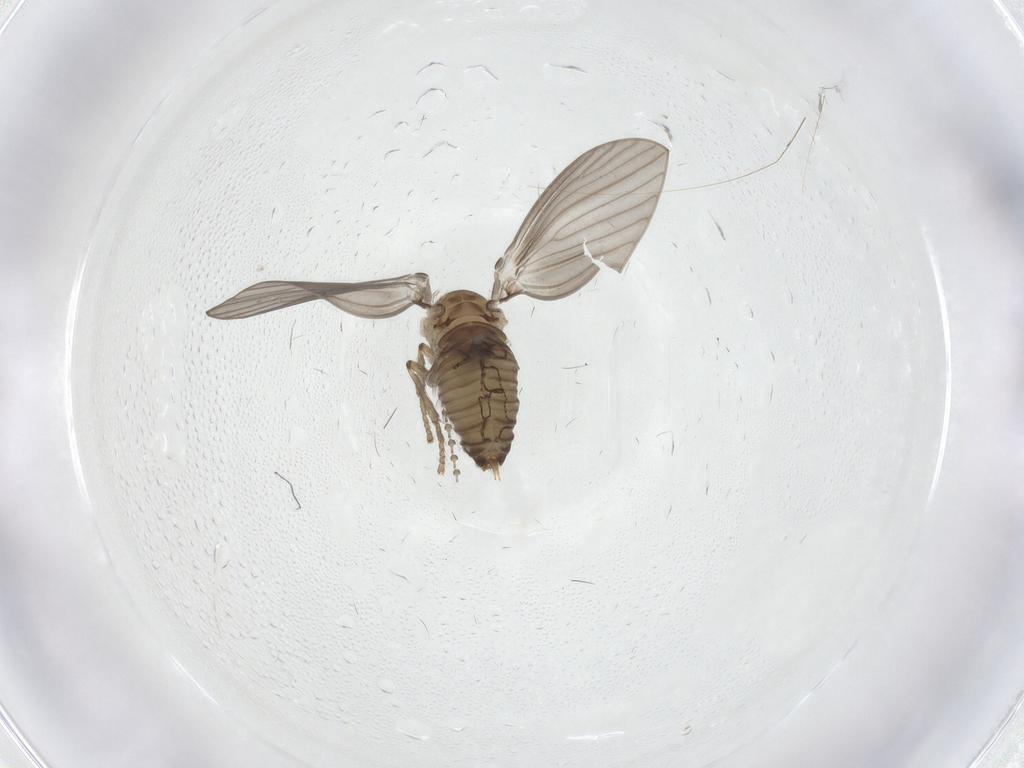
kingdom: Animalia
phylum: Arthropoda
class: Insecta
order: Diptera
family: Psychodidae
